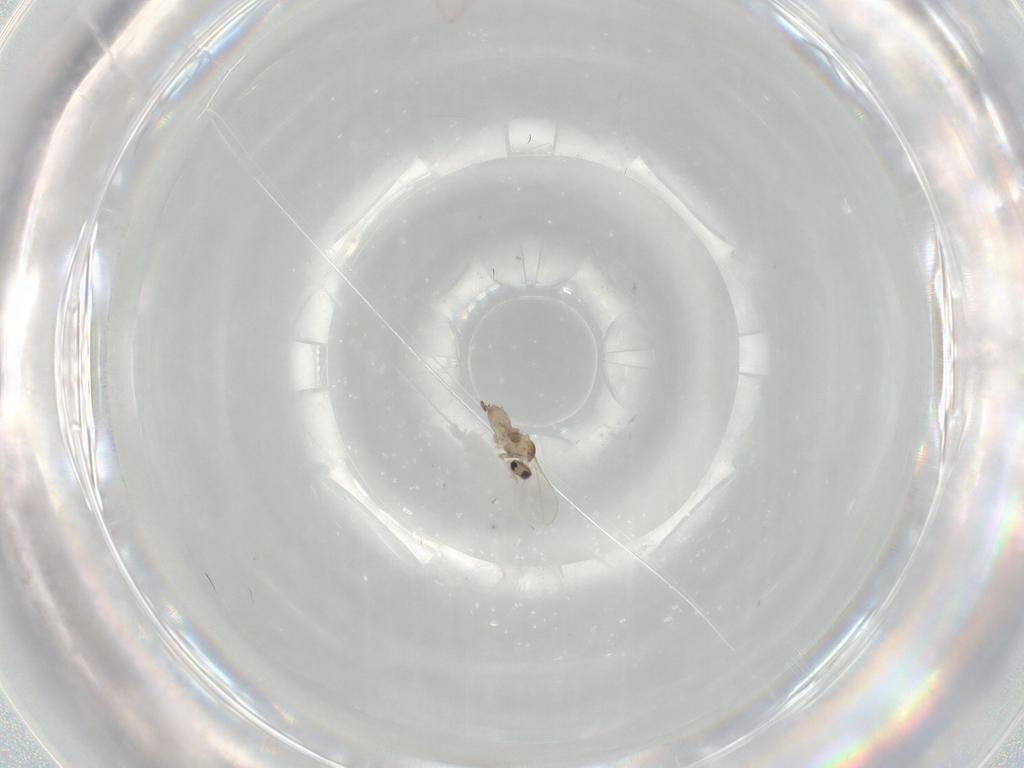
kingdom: Animalia
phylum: Arthropoda
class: Insecta
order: Diptera
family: Cecidomyiidae
